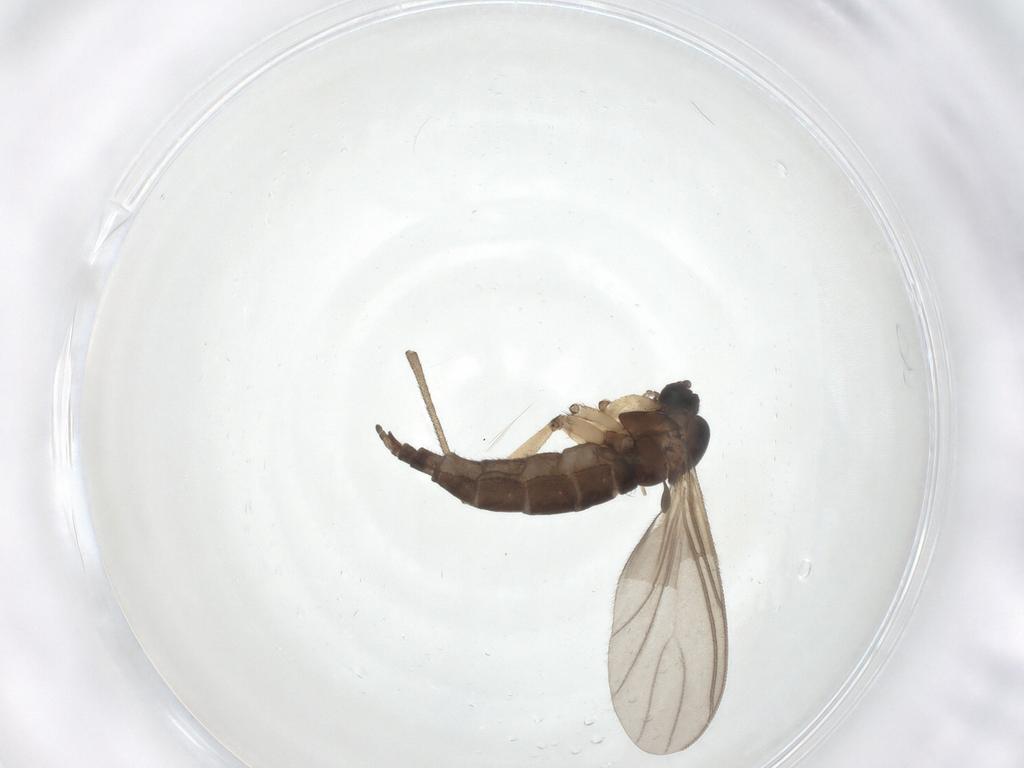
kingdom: Animalia
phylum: Arthropoda
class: Insecta
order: Diptera
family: Sciaridae
